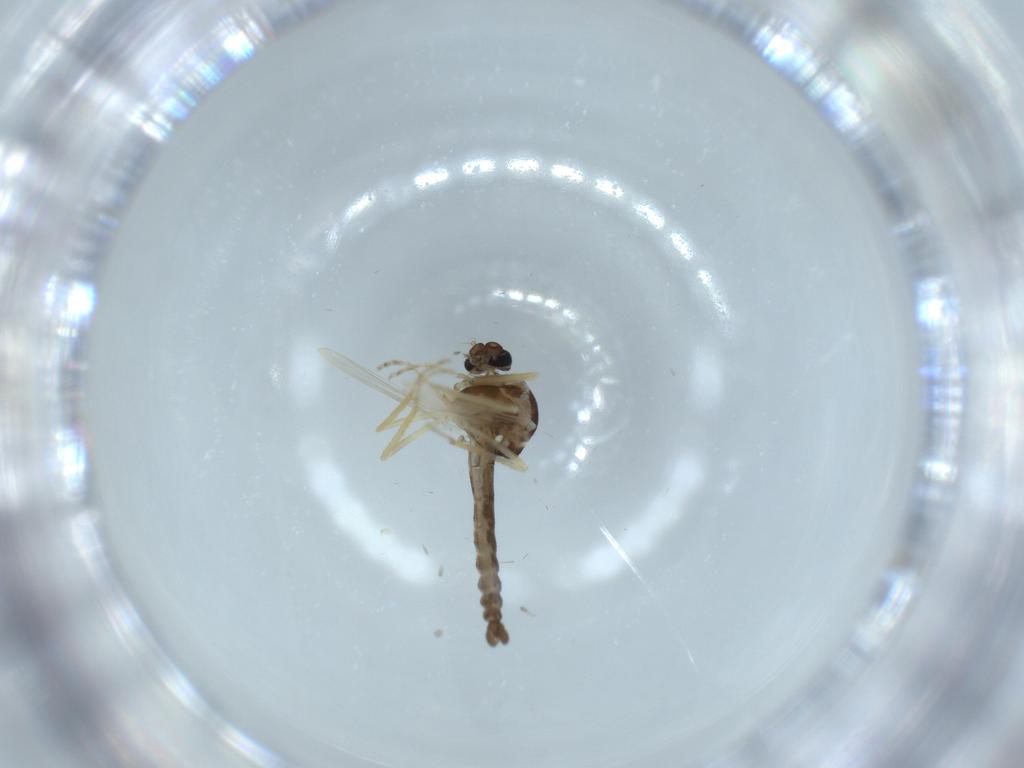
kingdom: Animalia
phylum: Arthropoda
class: Insecta
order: Diptera
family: Ceratopogonidae
